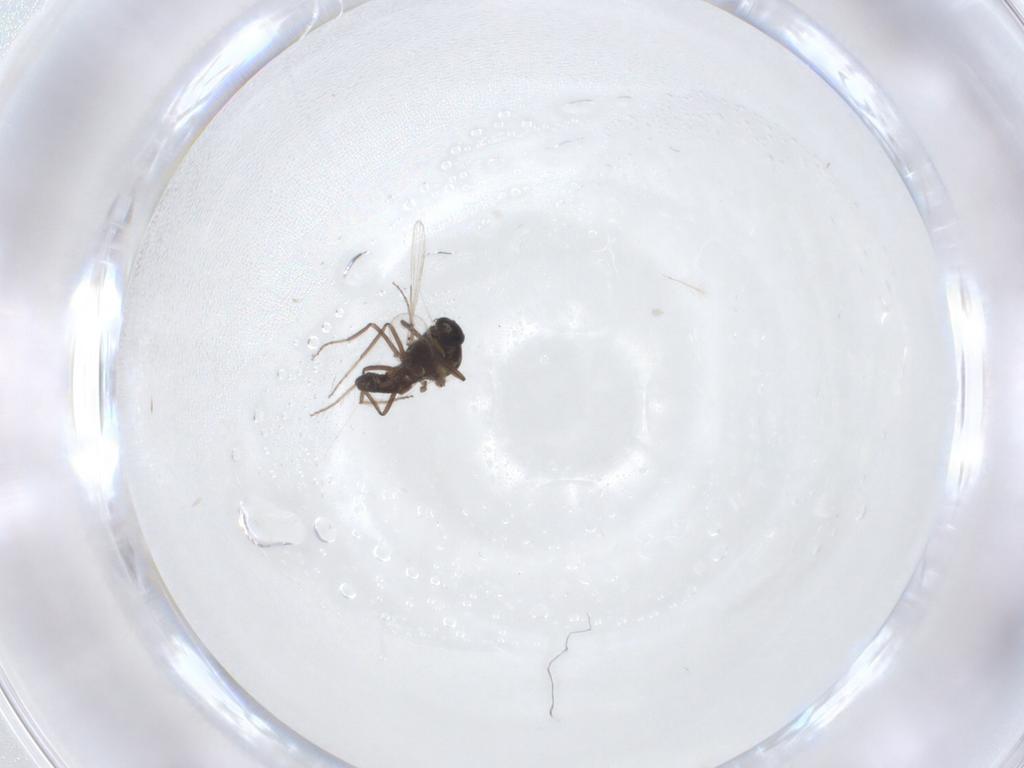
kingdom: Animalia
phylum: Arthropoda
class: Insecta
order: Diptera
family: Ceratopogonidae
